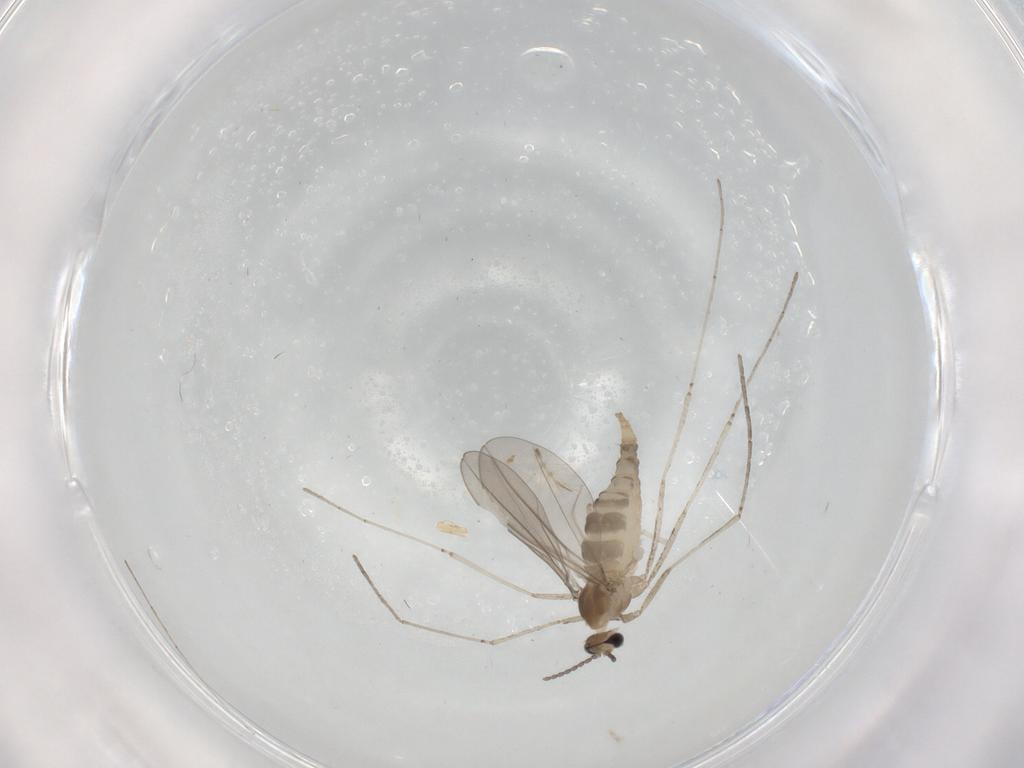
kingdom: Animalia
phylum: Arthropoda
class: Insecta
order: Diptera
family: Cecidomyiidae
